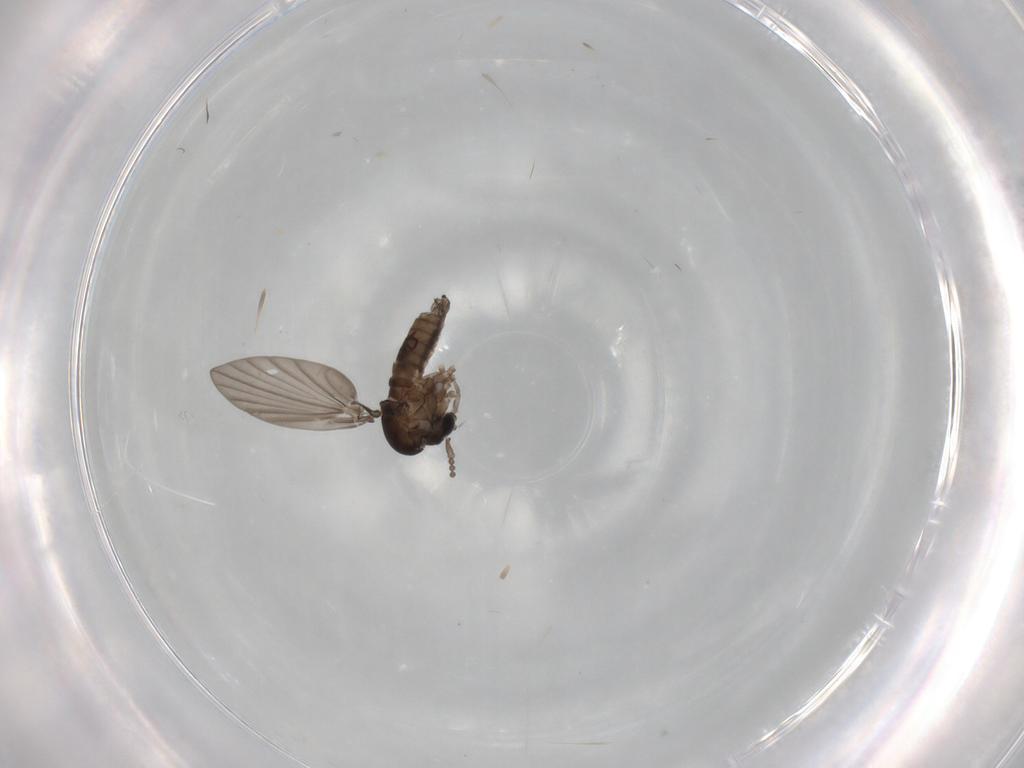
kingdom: Animalia
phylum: Arthropoda
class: Insecta
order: Diptera
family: Psychodidae
